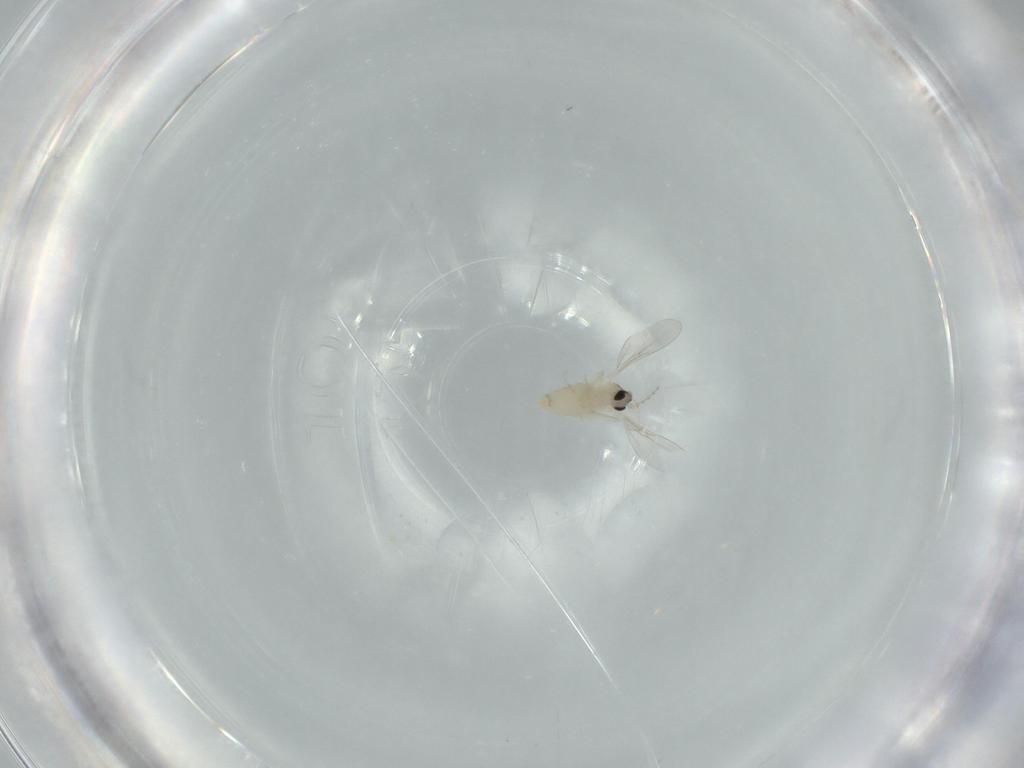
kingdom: Animalia
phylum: Arthropoda
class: Insecta
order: Diptera
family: Cecidomyiidae
